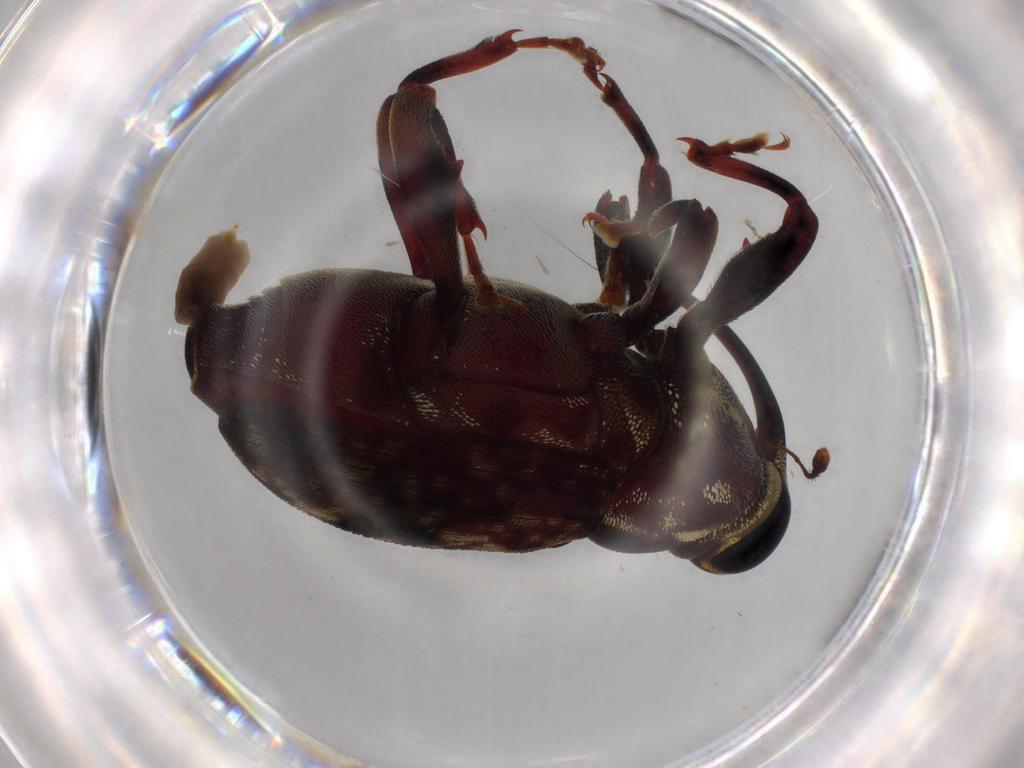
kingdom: Animalia
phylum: Arthropoda
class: Insecta
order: Coleoptera
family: Curculionidae
